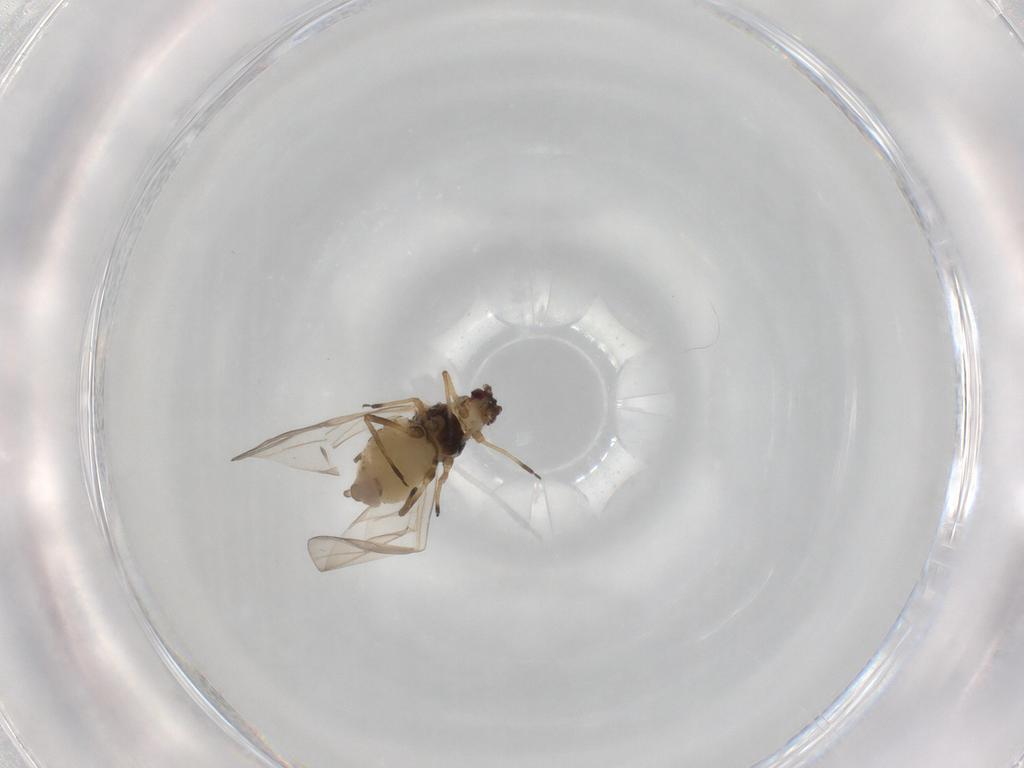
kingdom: Animalia
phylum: Arthropoda
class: Insecta
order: Hemiptera
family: Aphididae
